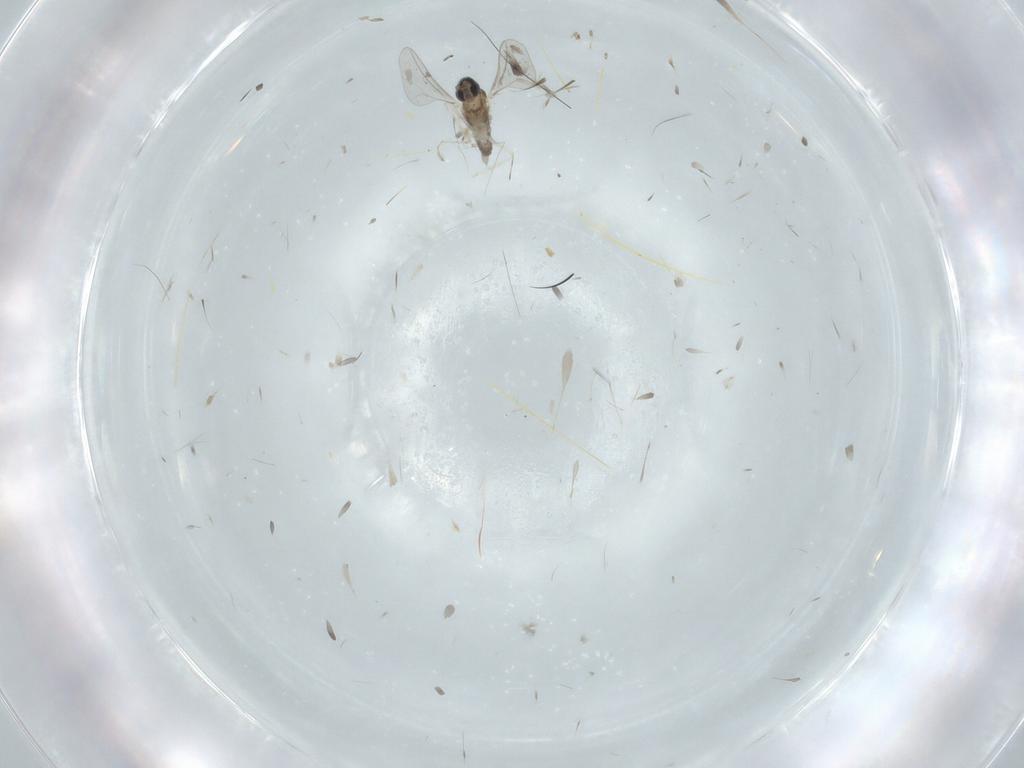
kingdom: Animalia
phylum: Arthropoda
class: Insecta
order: Diptera
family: Cecidomyiidae
